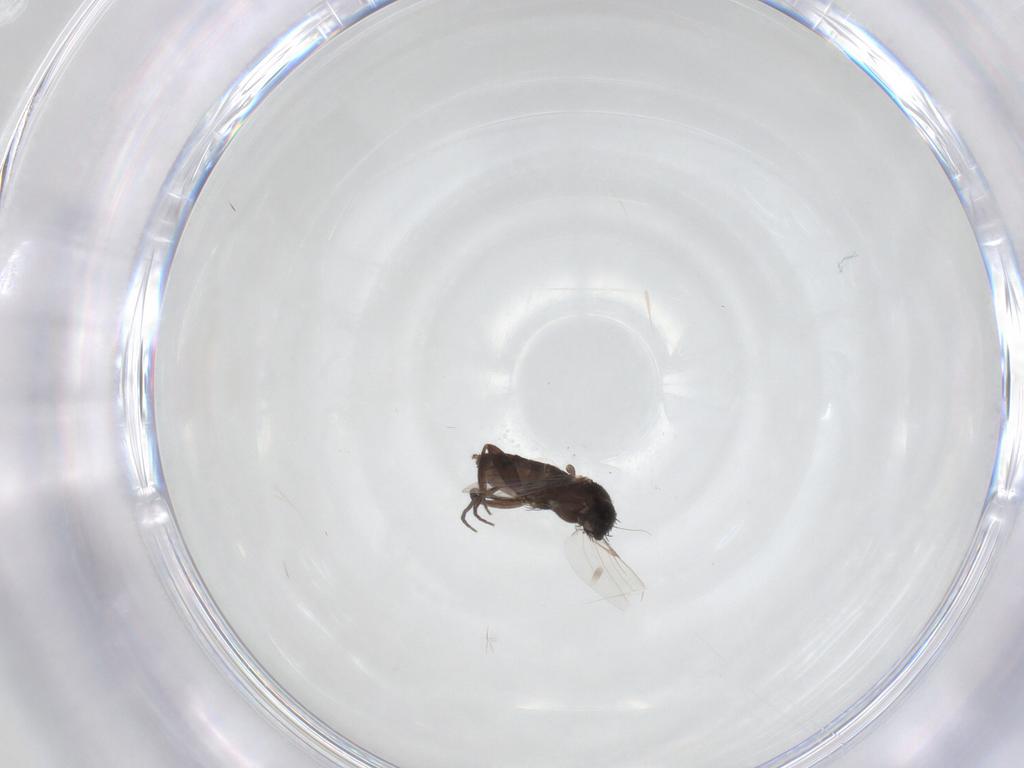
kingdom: Animalia
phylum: Arthropoda
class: Insecta
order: Diptera
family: Phoridae
